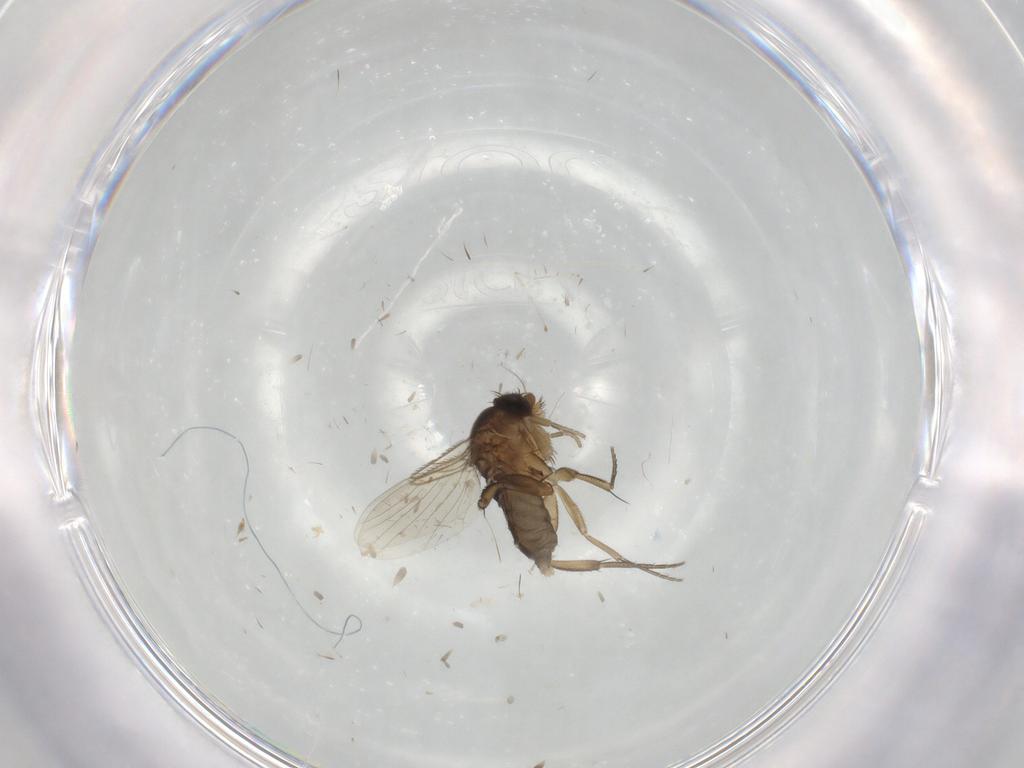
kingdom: Animalia
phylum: Arthropoda
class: Insecta
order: Diptera
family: Phoridae
